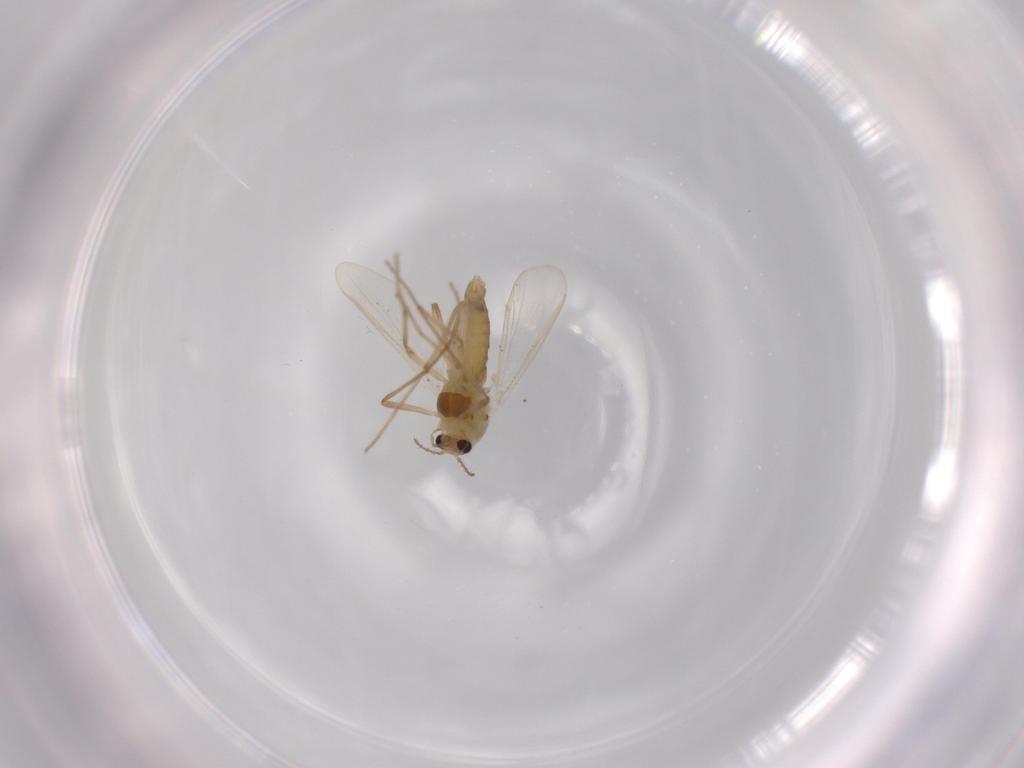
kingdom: Animalia
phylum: Arthropoda
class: Insecta
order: Diptera
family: Chironomidae
